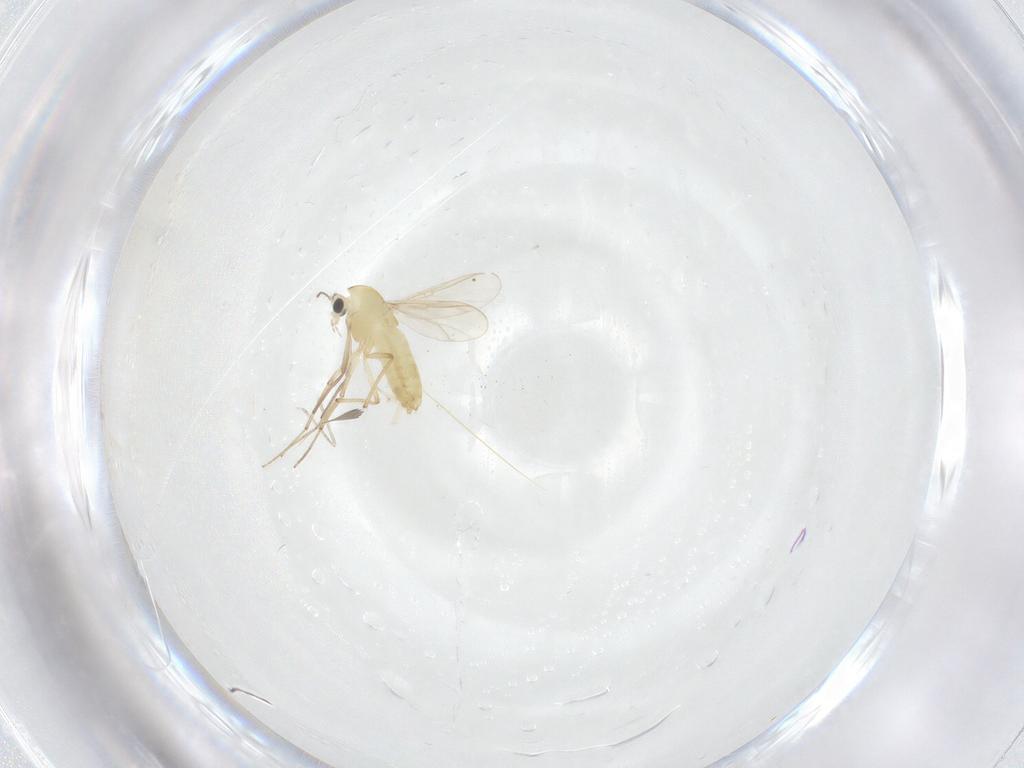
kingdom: Animalia
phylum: Arthropoda
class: Insecta
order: Diptera
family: Chironomidae
